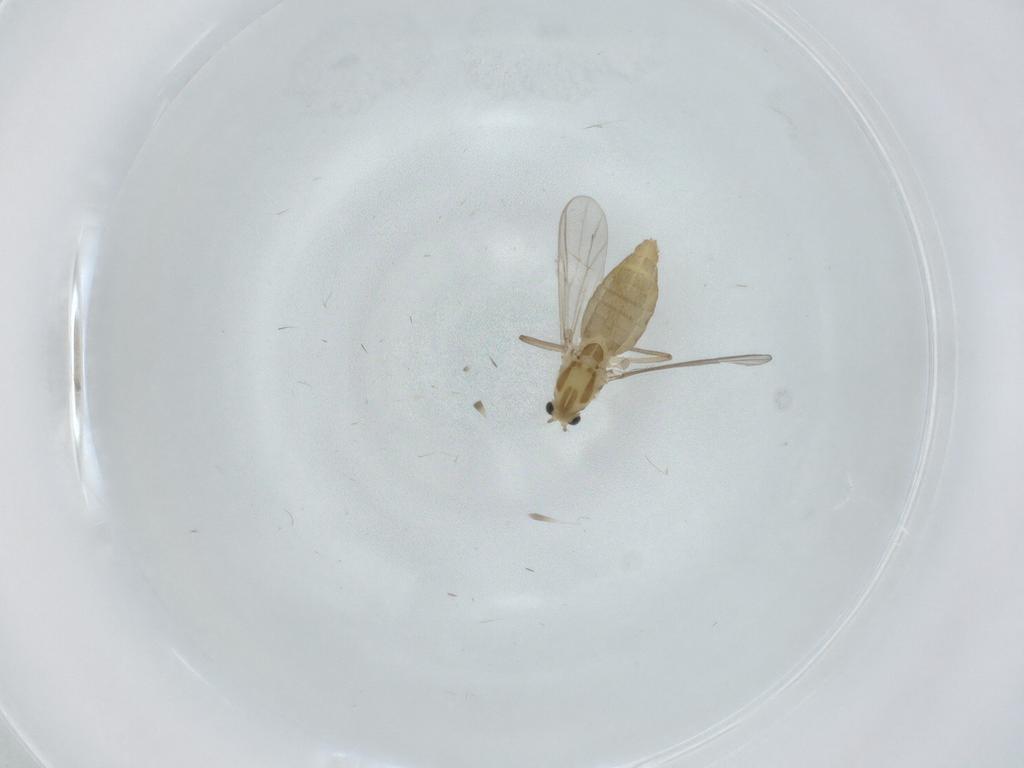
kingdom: Animalia
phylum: Arthropoda
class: Insecta
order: Diptera
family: Chironomidae
